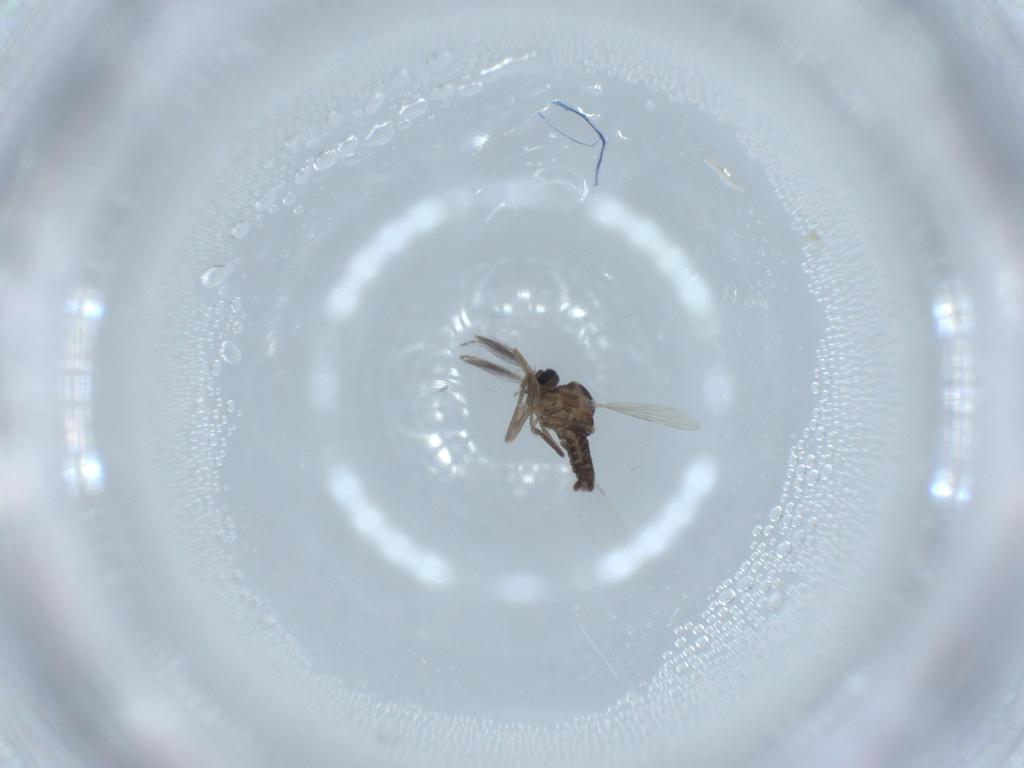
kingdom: Animalia
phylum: Arthropoda
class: Insecta
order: Diptera
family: Ceratopogonidae
